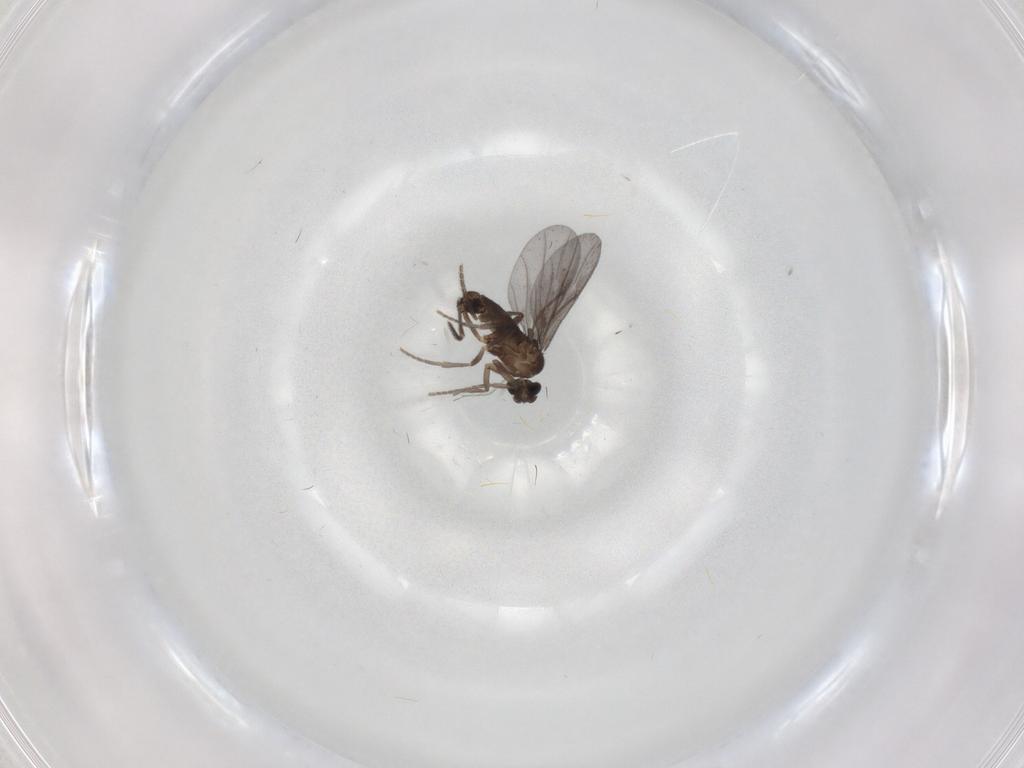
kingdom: Animalia
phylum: Arthropoda
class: Insecta
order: Diptera
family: Phoridae
